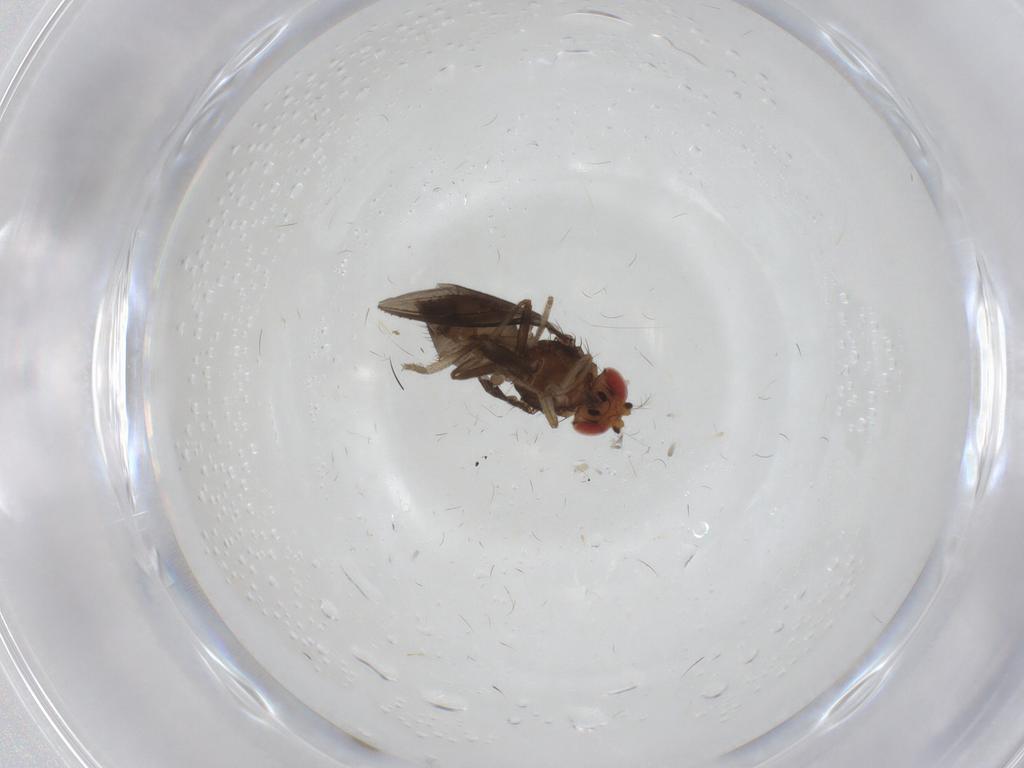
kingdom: Animalia
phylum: Arthropoda
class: Insecta
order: Diptera
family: Drosophilidae
